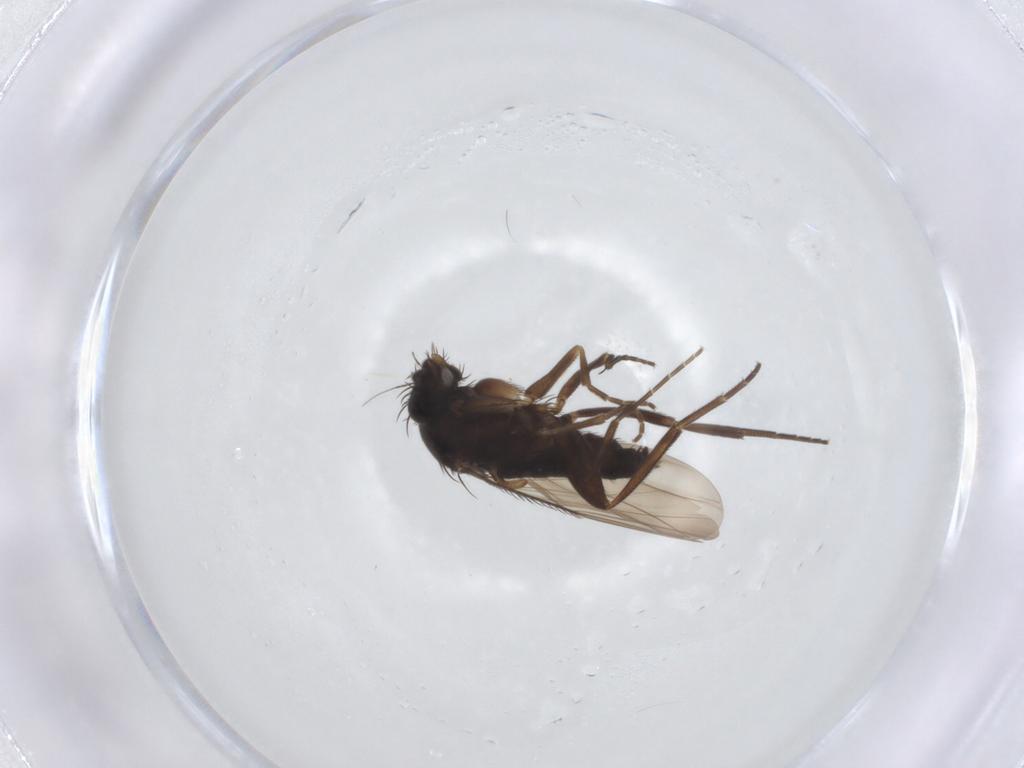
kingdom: Animalia
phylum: Arthropoda
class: Insecta
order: Diptera
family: Phoridae
